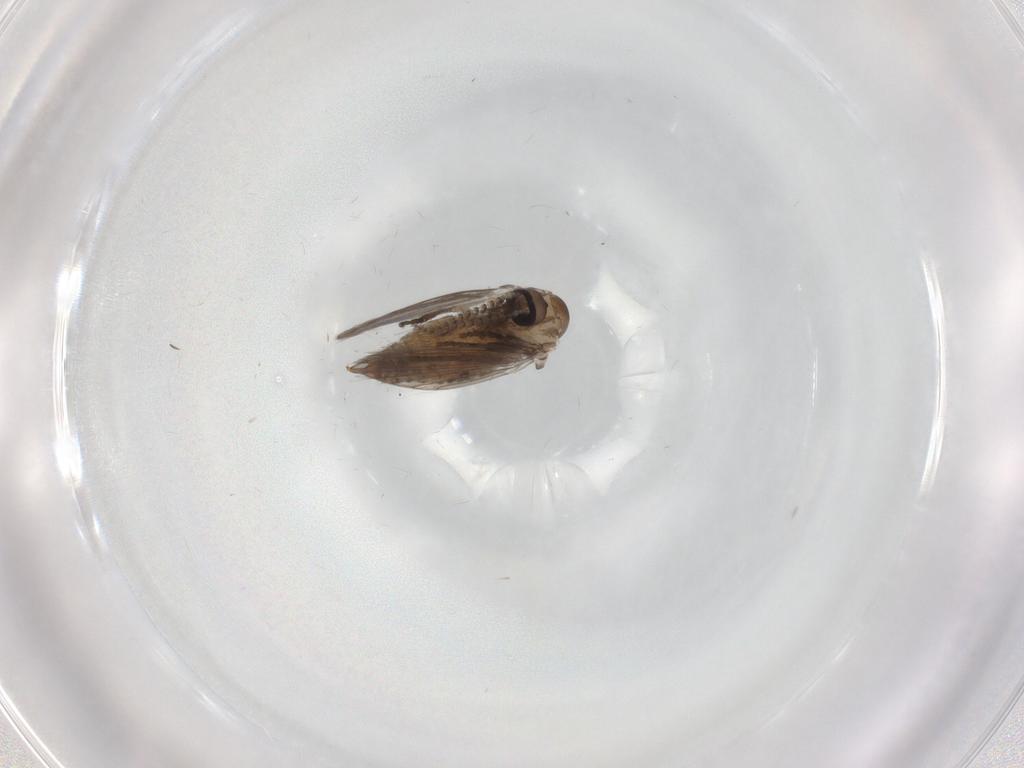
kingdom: Animalia
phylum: Arthropoda
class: Insecta
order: Diptera
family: Psychodidae
